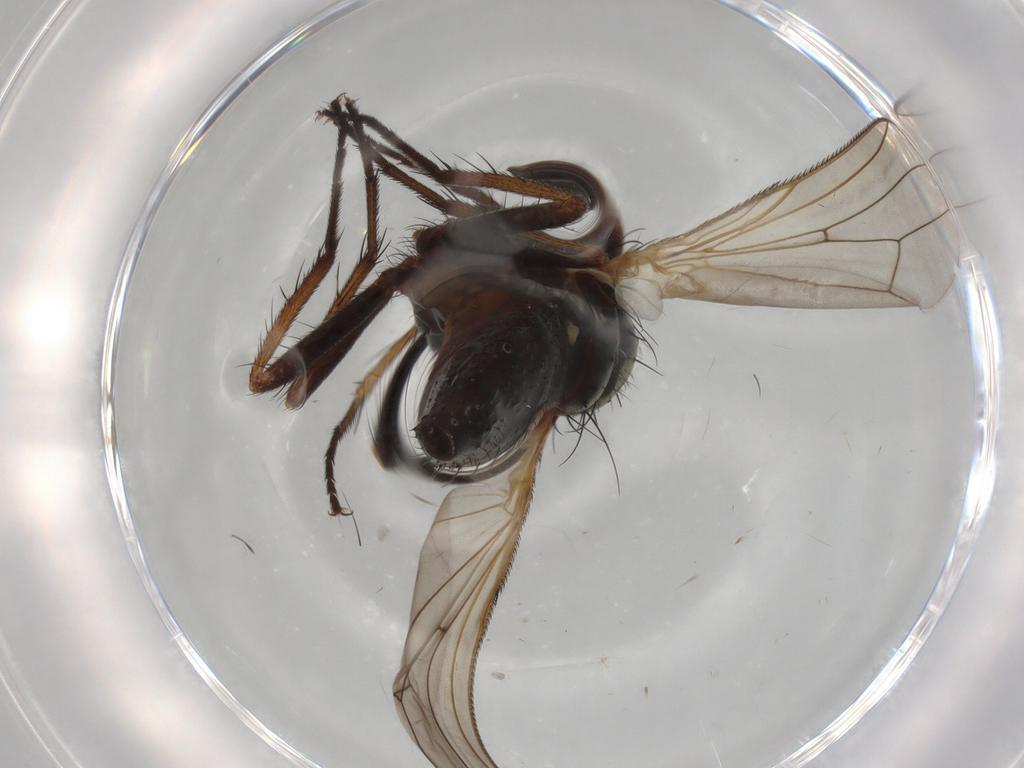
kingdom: Animalia
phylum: Arthropoda
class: Insecta
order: Diptera
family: Anthomyiidae
